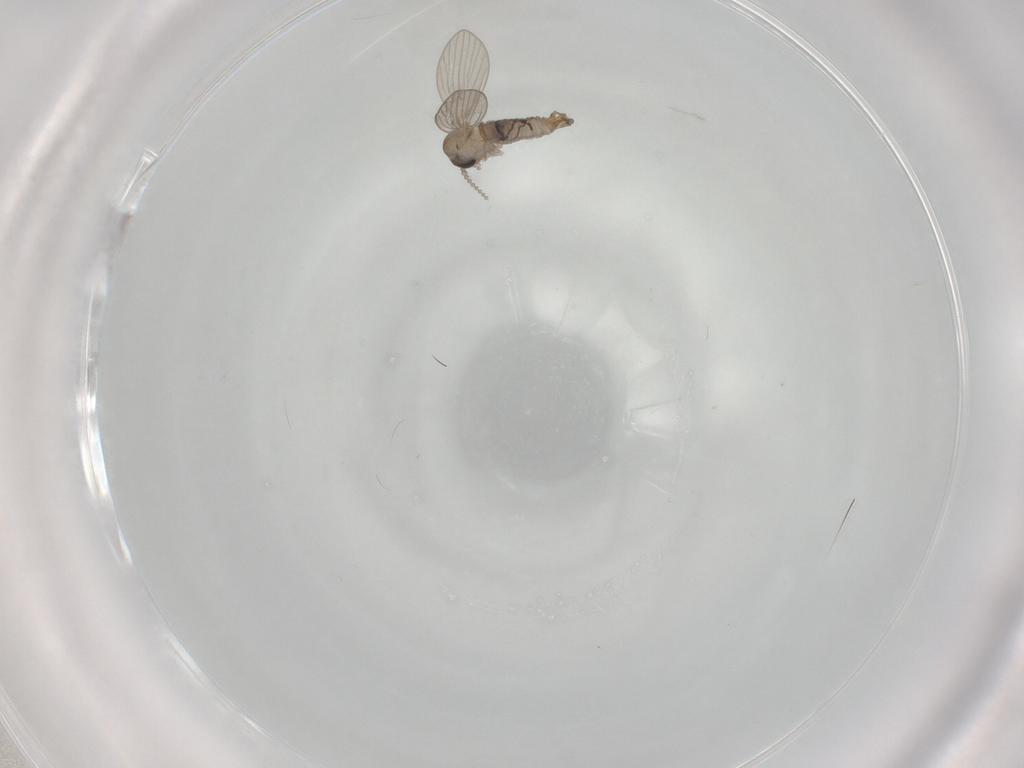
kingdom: Animalia
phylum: Arthropoda
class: Insecta
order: Diptera
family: Psychodidae
